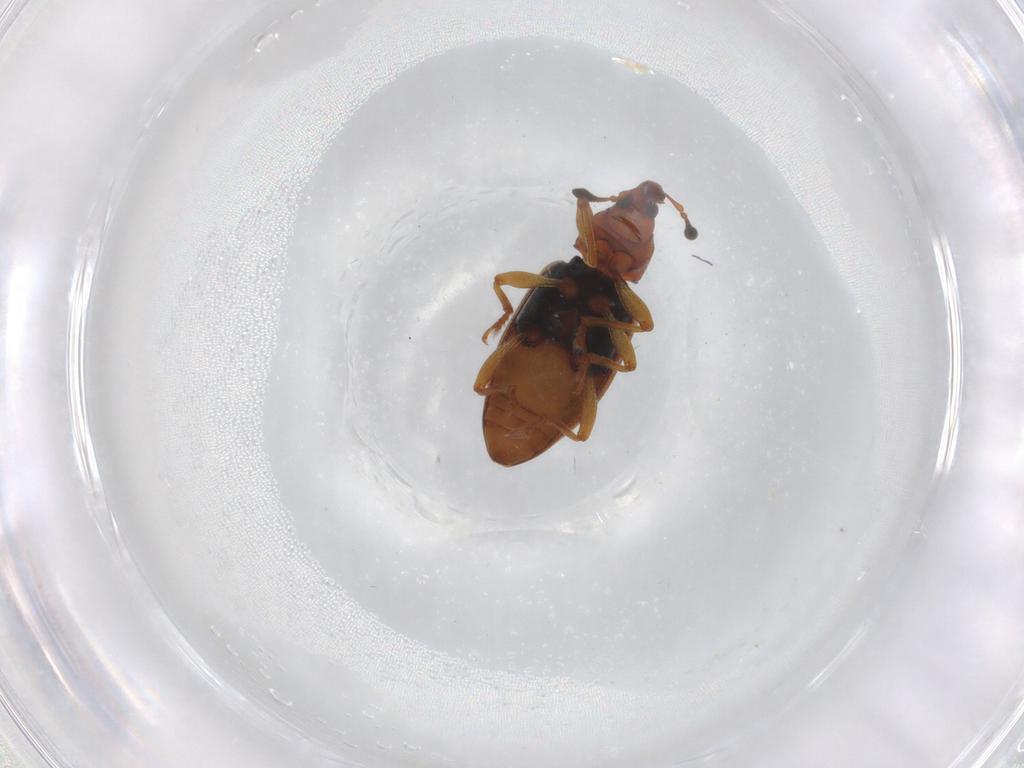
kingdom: Animalia
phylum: Arthropoda
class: Insecta
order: Coleoptera
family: Curculionidae
